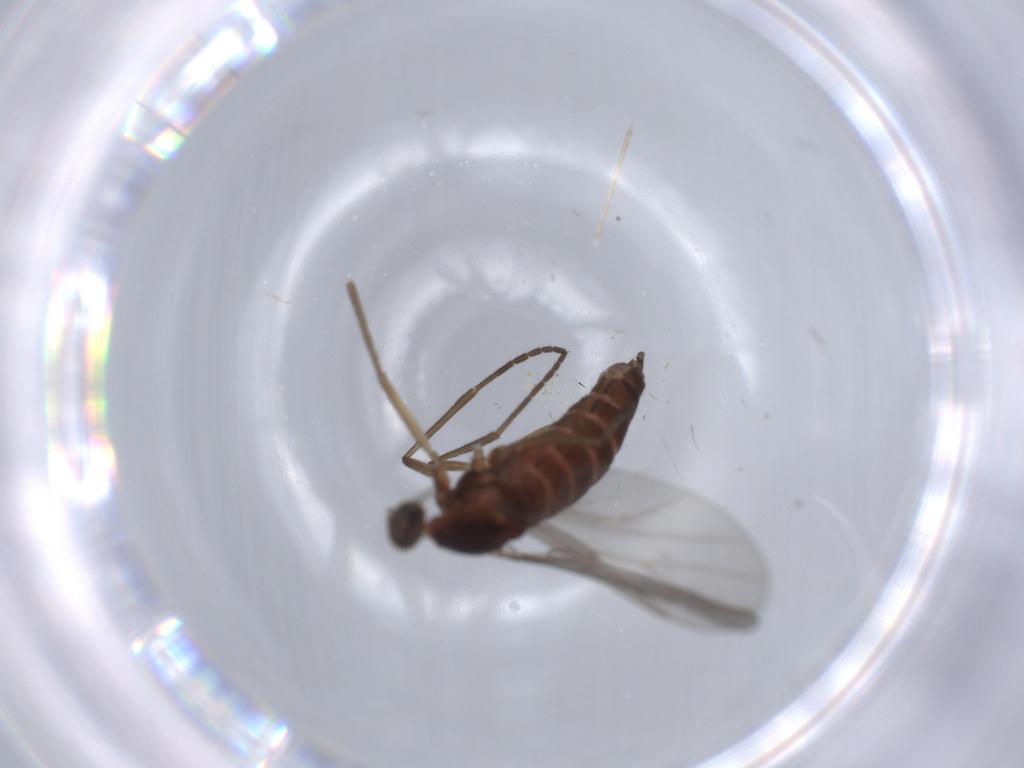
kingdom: Animalia
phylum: Arthropoda
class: Insecta
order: Diptera
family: Cecidomyiidae
